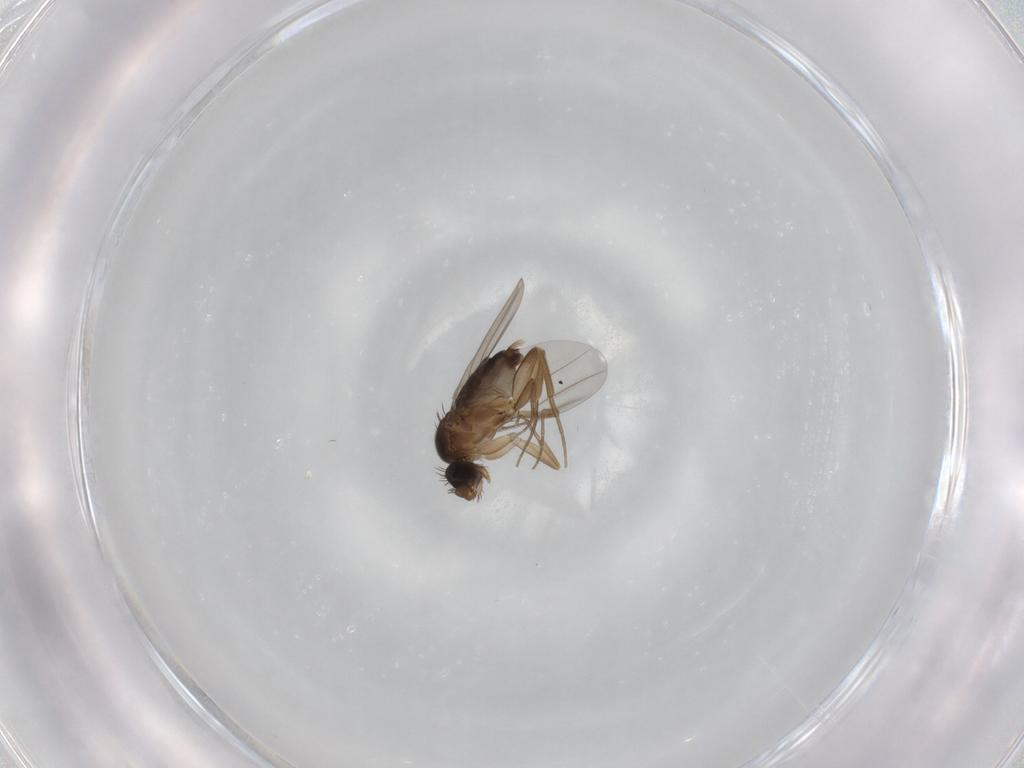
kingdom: Animalia
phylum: Arthropoda
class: Insecta
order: Diptera
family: Phoridae
